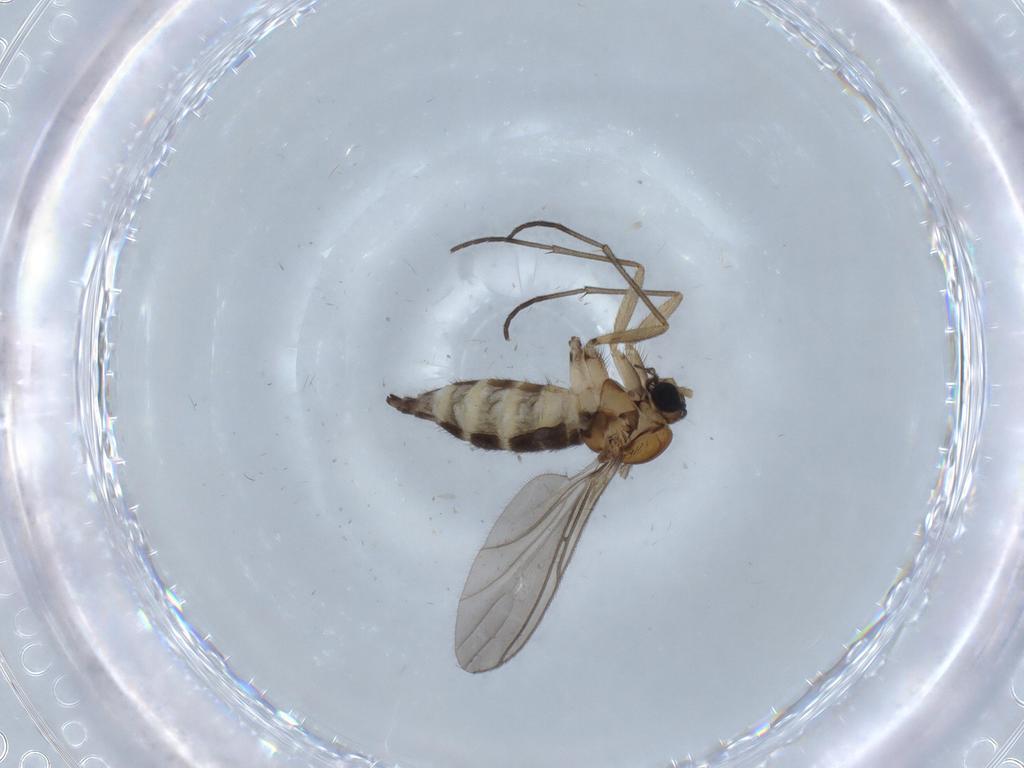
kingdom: Animalia
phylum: Arthropoda
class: Insecta
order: Diptera
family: Sciaridae
